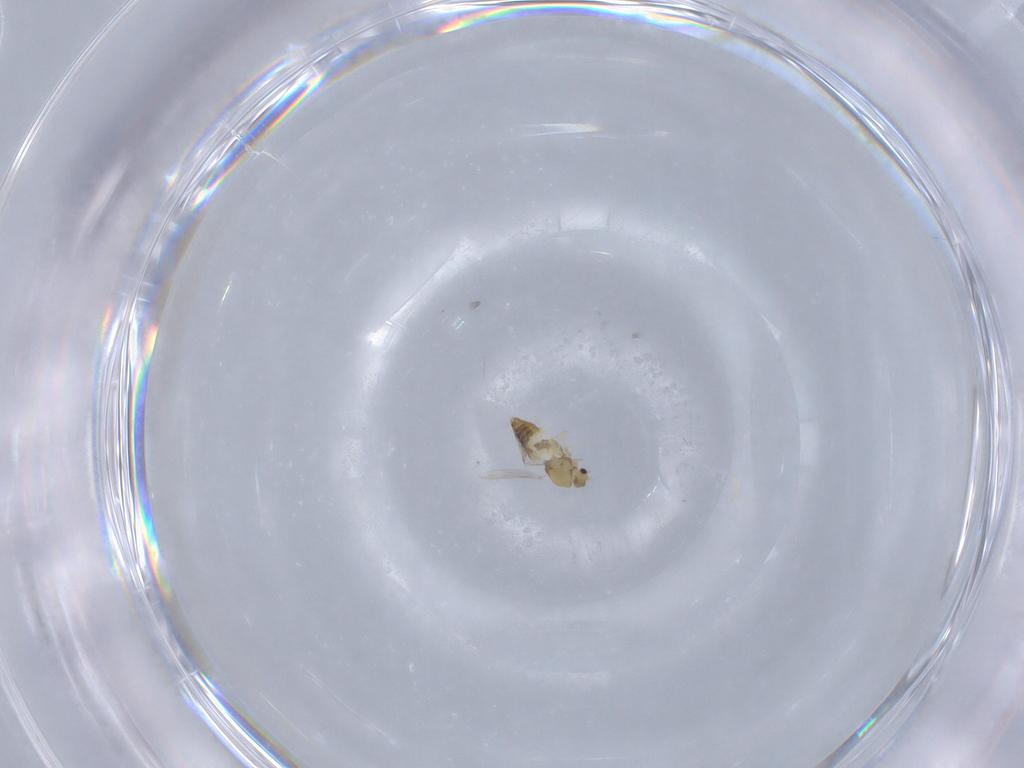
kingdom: Animalia
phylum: Arthropoda
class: Insecta
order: Diptera
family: Chironomidae
